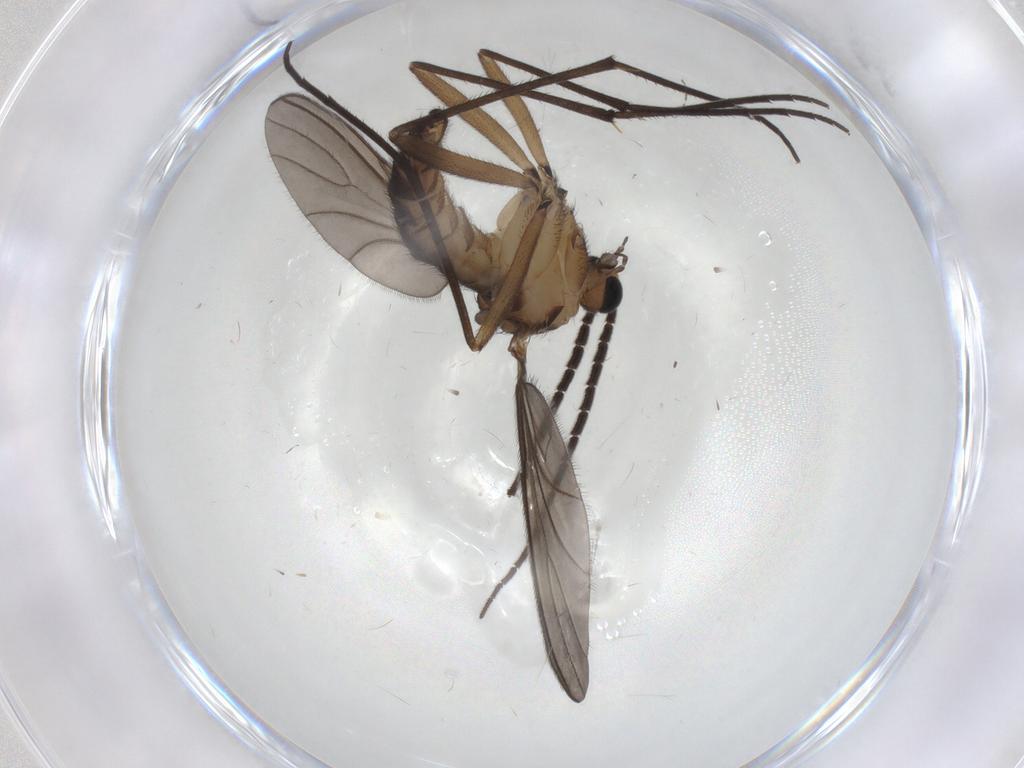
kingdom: Animalia
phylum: Arthropoda
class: Insecta
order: Diptera
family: Sciaridae
